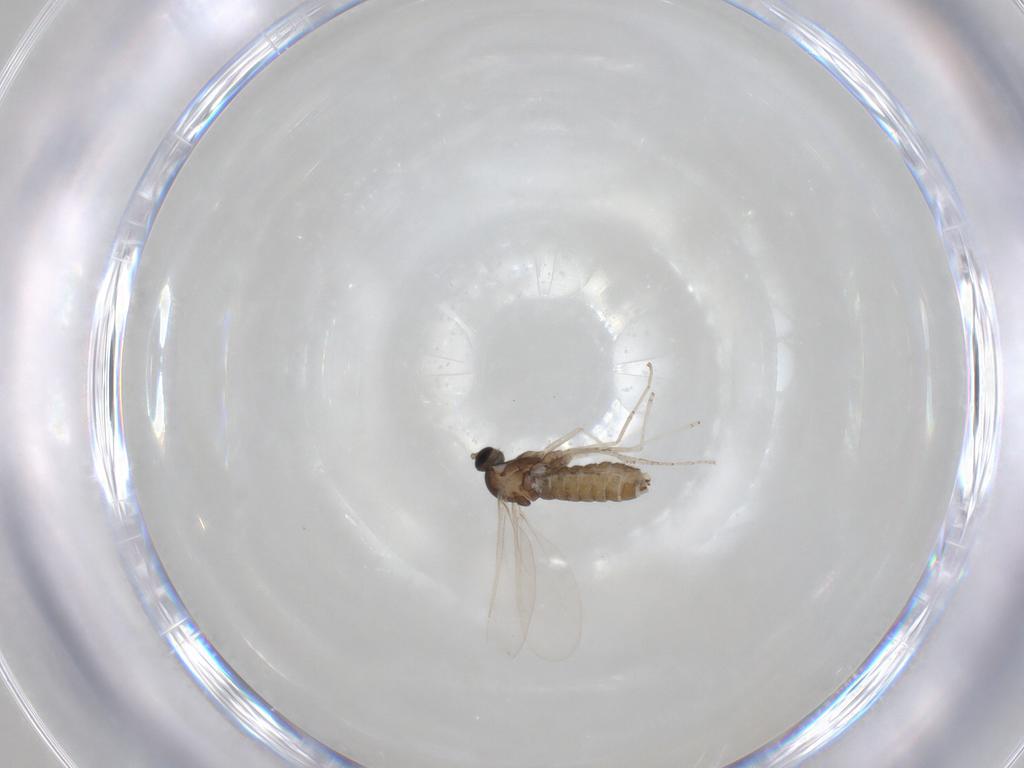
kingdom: Animalia
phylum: Arthropoda
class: Insecta
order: Diptera
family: Cecidomyiidae
